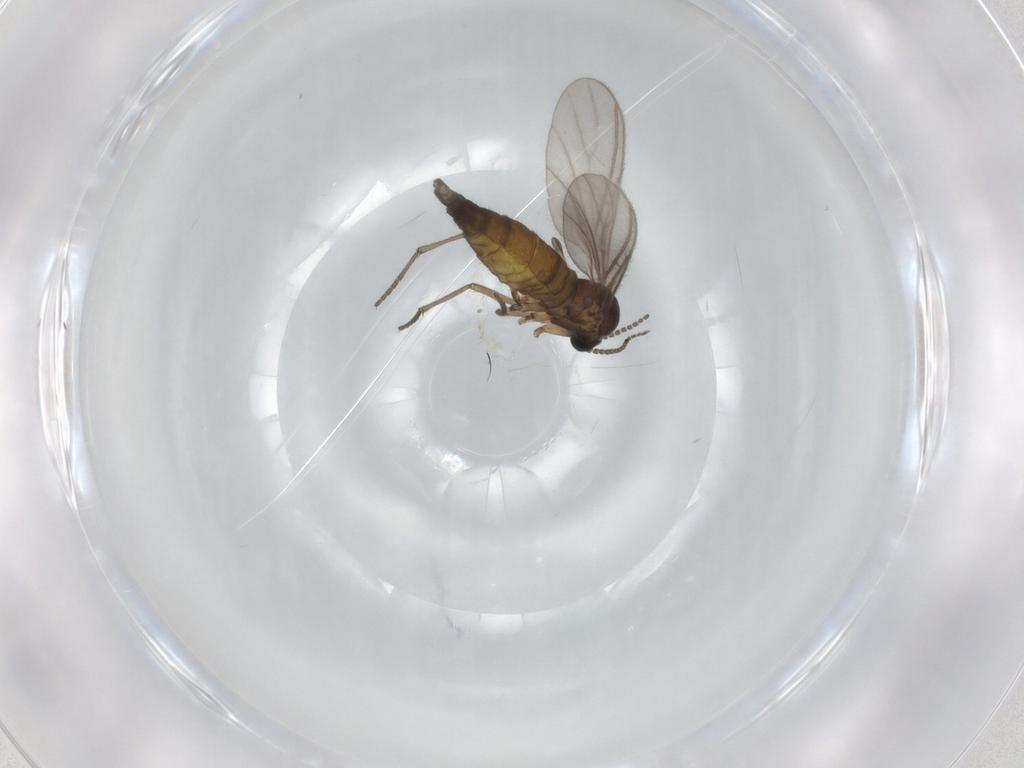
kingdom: Animalia
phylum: Arthropoda
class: Insecta
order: Diptera
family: Sciaridae
